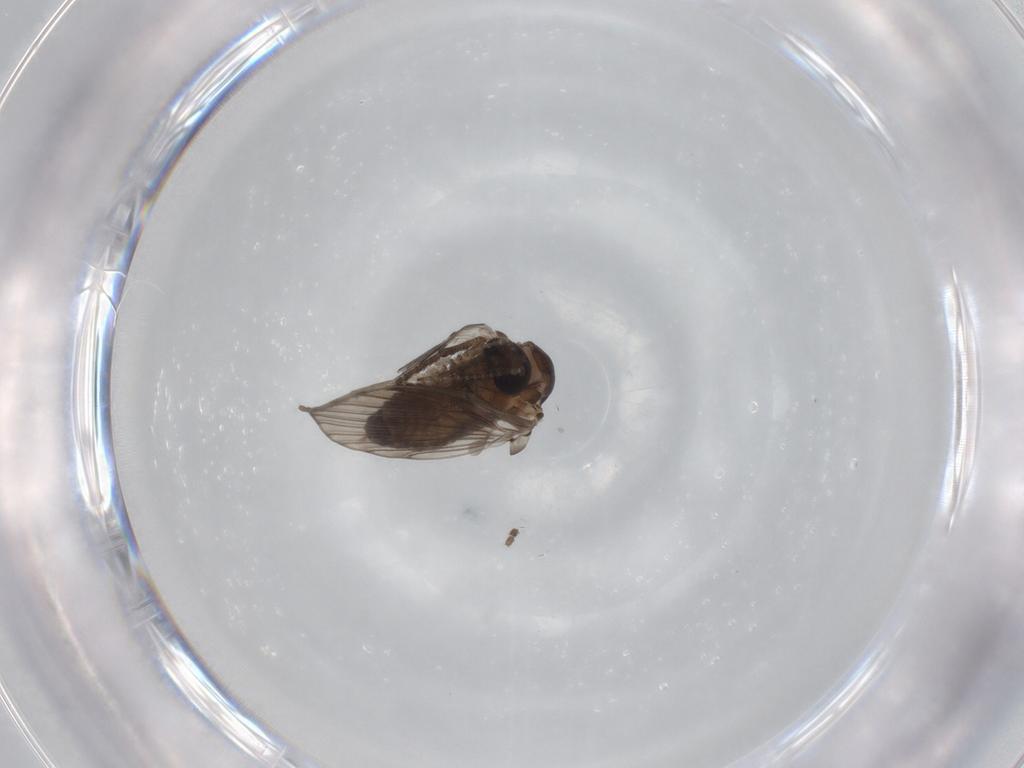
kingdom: Animalia
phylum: Arthropoda
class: Insecta
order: Diptera
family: Psychodidae
